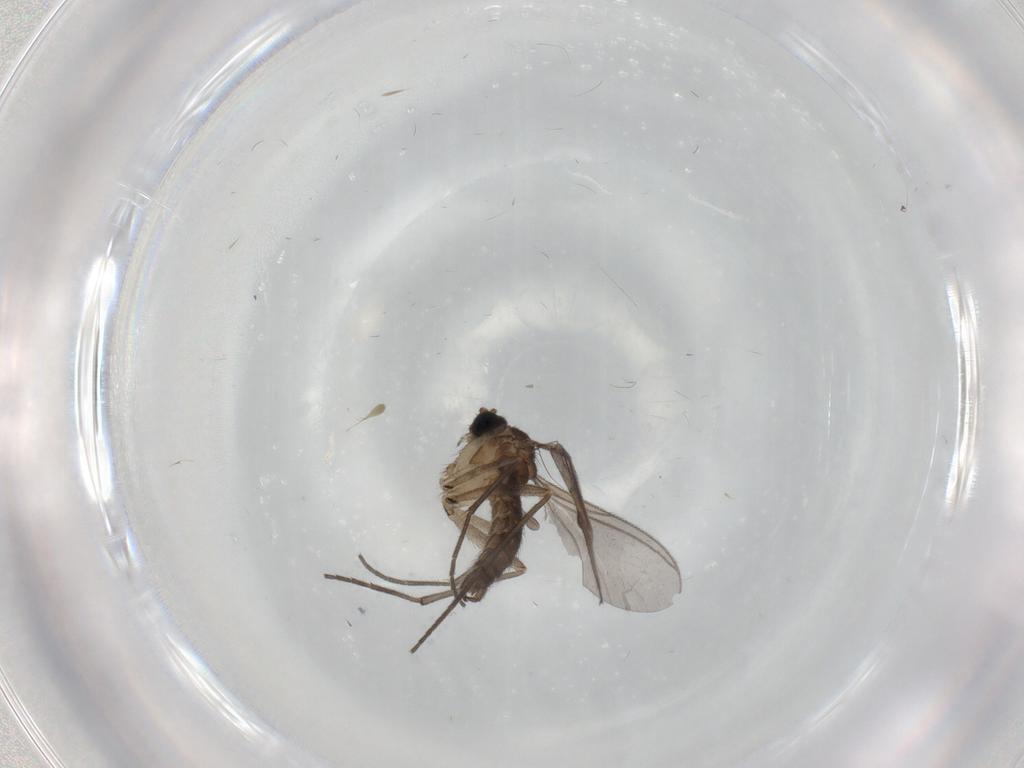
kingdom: Animalia
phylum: Arthropoda
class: Insecta
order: Diptera
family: Sciaridae
